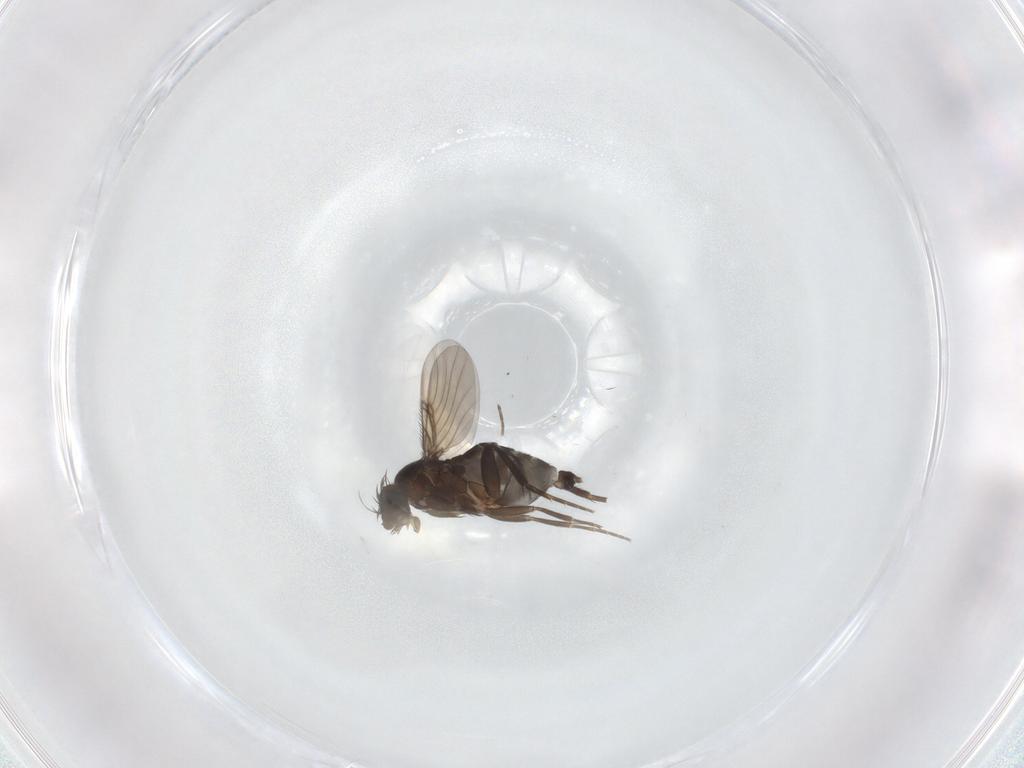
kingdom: Animalia
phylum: Arthropoda
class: Insecta
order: Diptera
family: Phoridae
